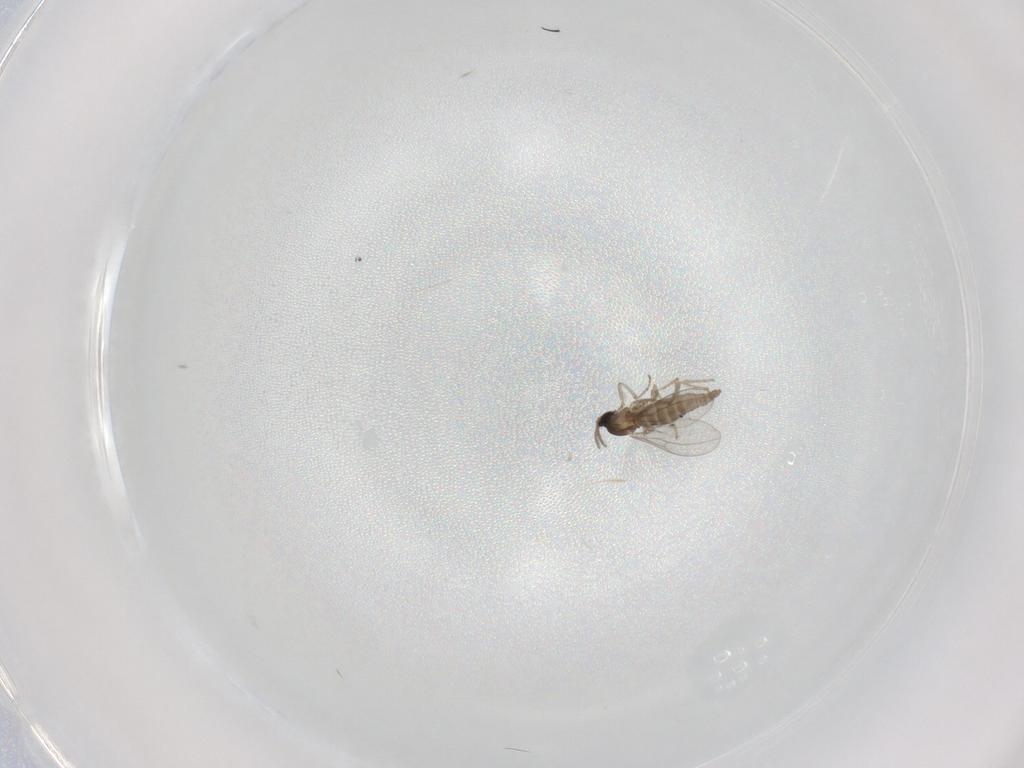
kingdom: Animalia
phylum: Arthropoda
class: Insecta
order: Diptera
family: Cecidomyiidae
